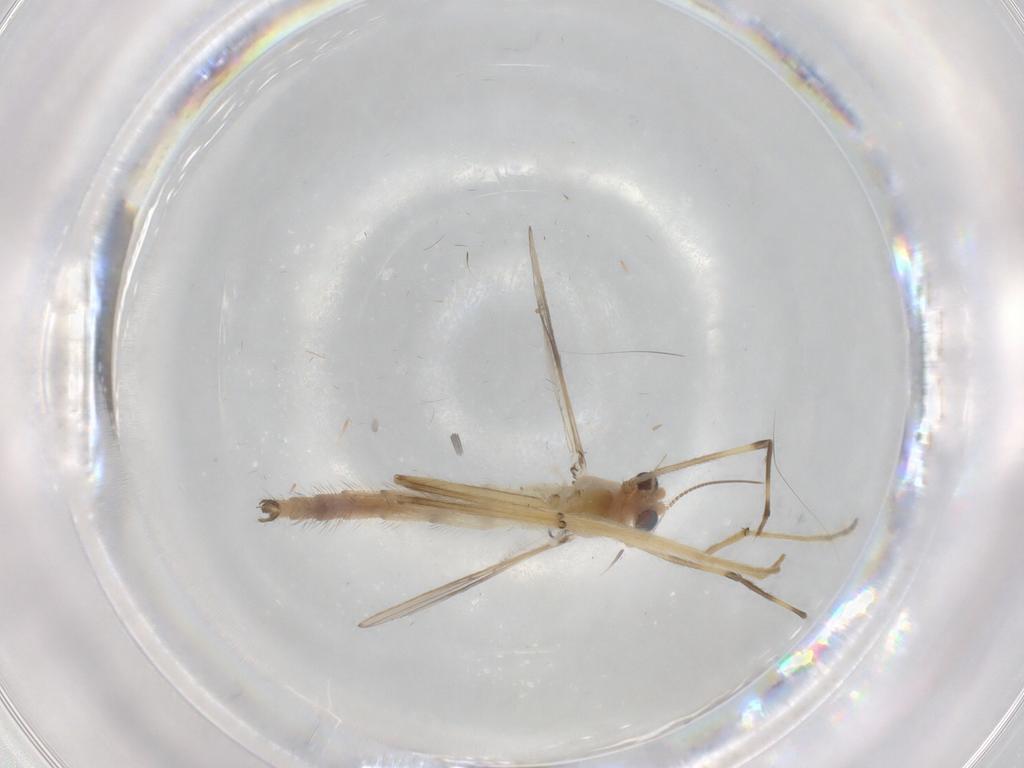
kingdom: Animalia
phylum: Arthropoda
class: Insecta
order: Diptera
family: Chironomidae
